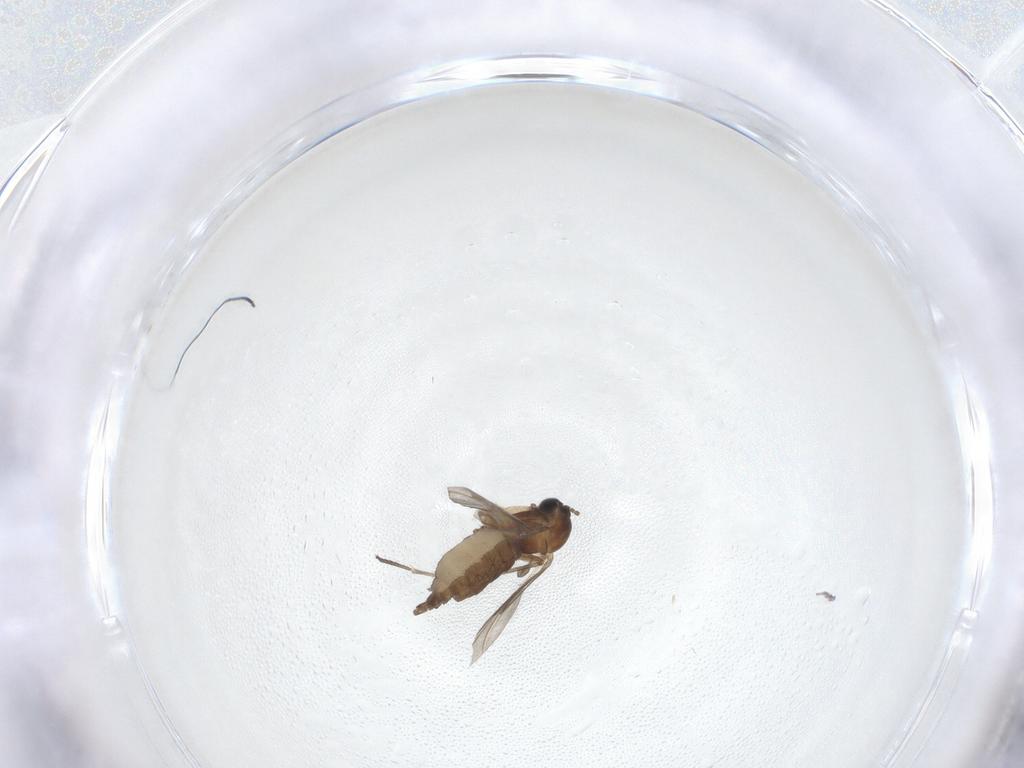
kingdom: Animalia
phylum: Arthropoda
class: Insecta
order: Diptera
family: Sciaridae
